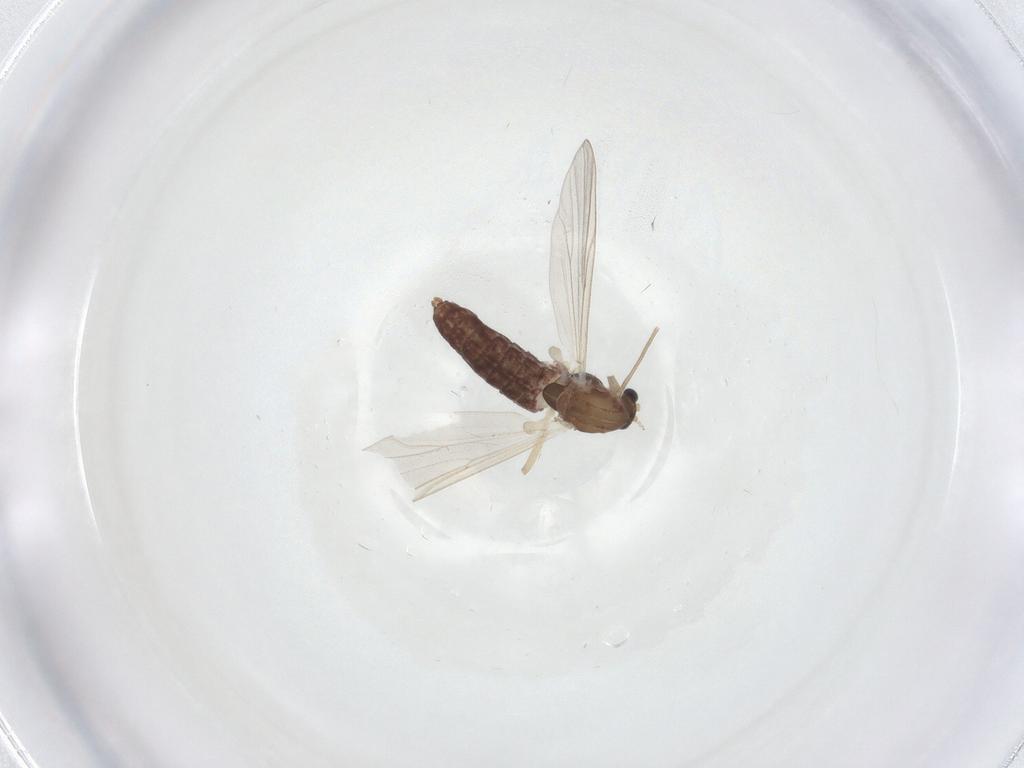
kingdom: Animalia
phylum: Arthropoda
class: Insecta
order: Diptera
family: Chironomidae
